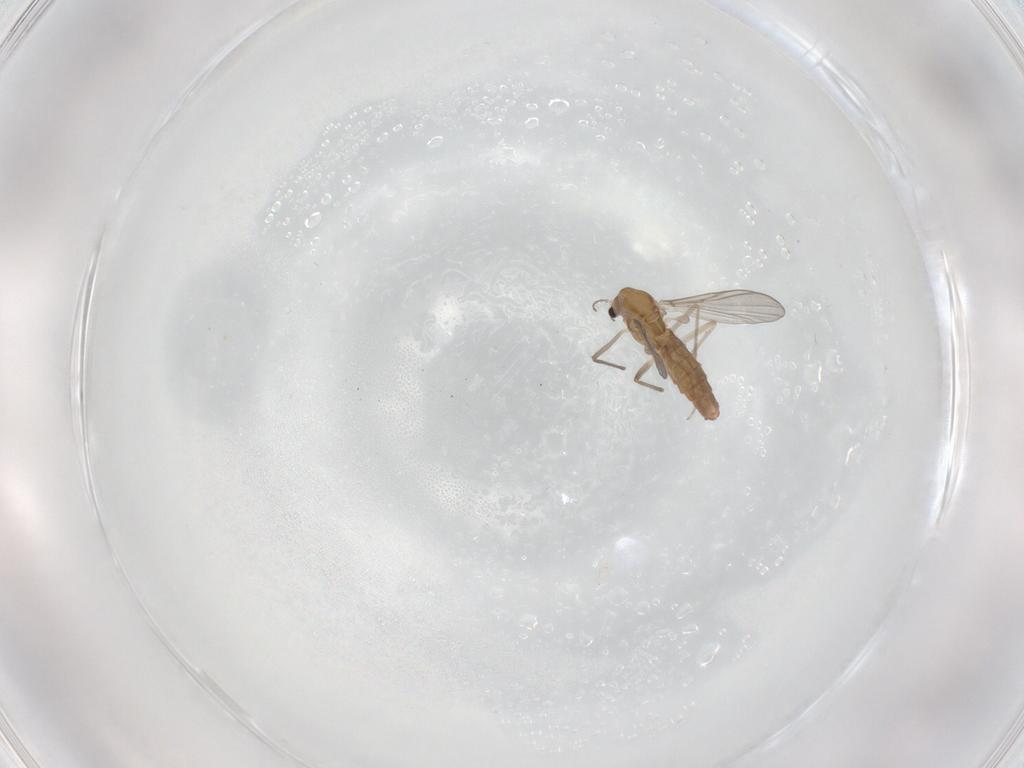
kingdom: Animalia
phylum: Arthropoda
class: Insecta
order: Diptera
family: Chironomidae
